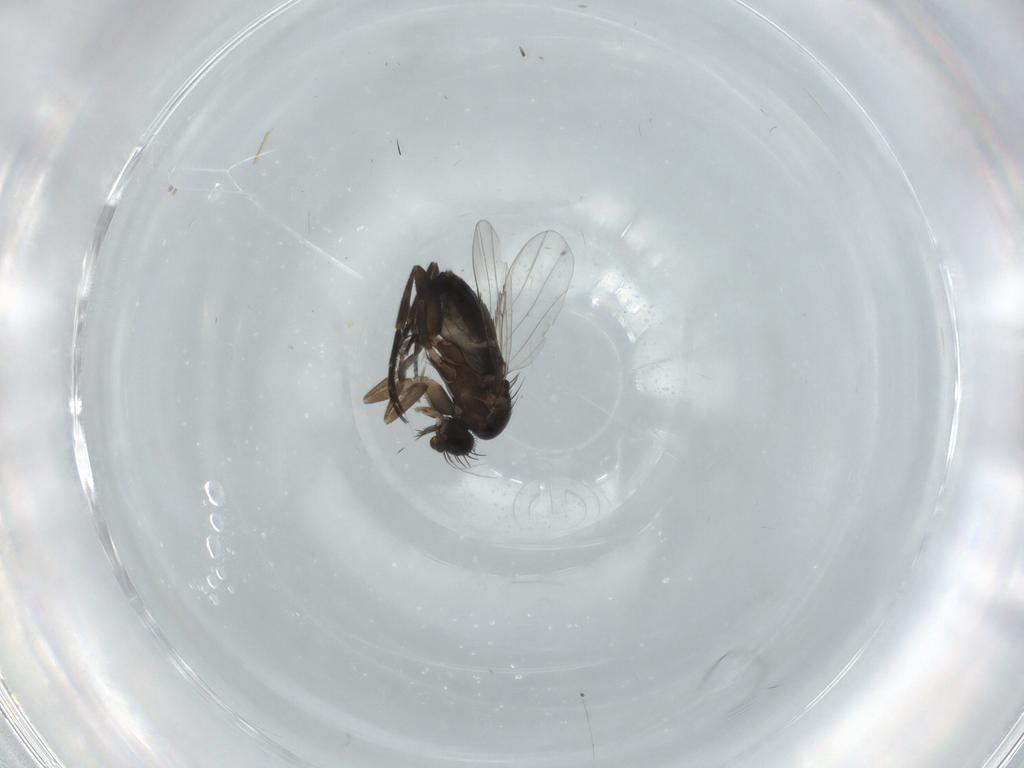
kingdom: Animalia
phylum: Arthropoda
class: Insecta
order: Diptera
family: Phoridae
